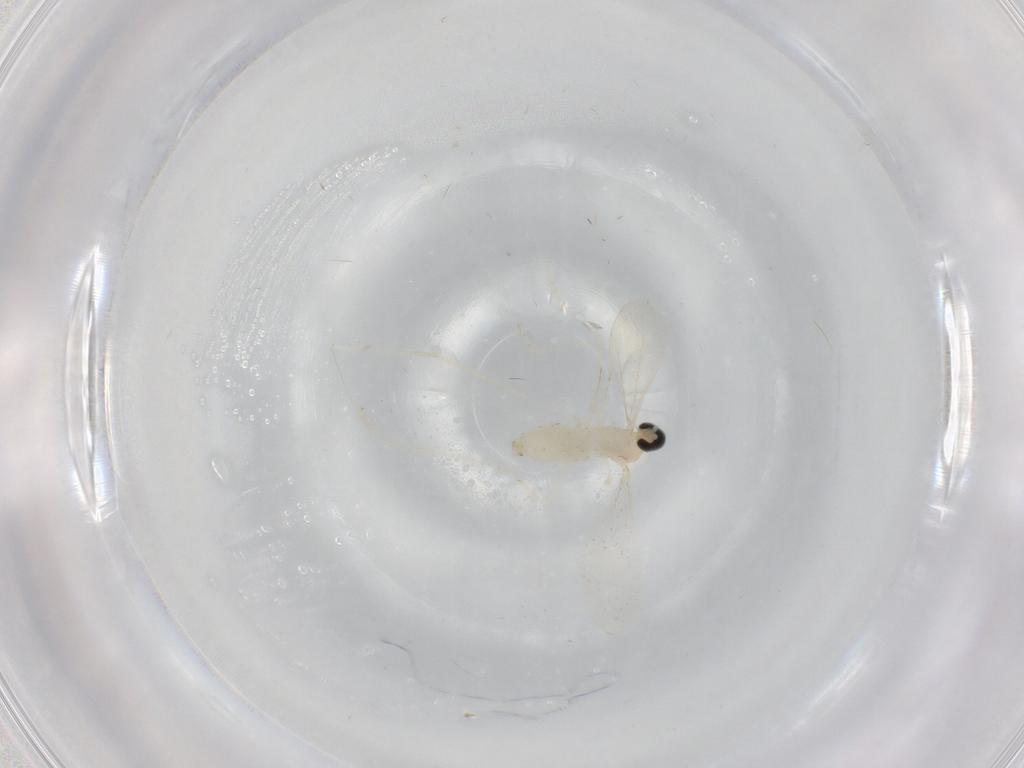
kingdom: Animalia
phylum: Arthropoda
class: Insecta
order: Diptera
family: Cecidomyiidae
